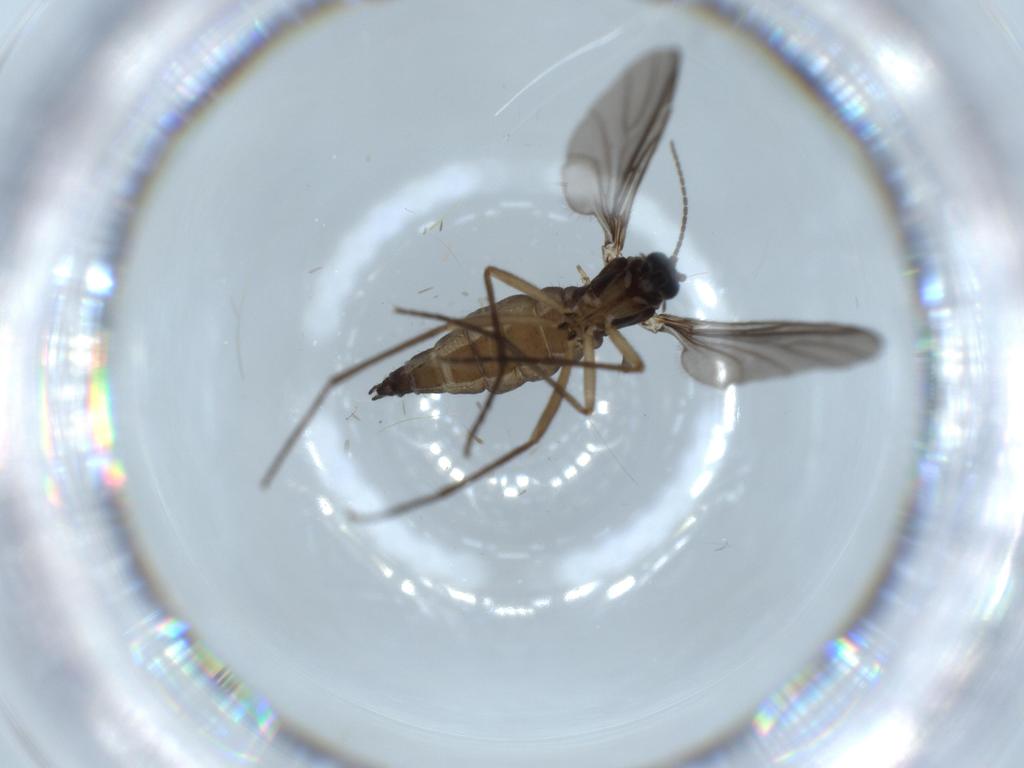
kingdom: Animalia
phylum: Arthropoda
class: Insecta
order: Diptera
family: Sciaridae
